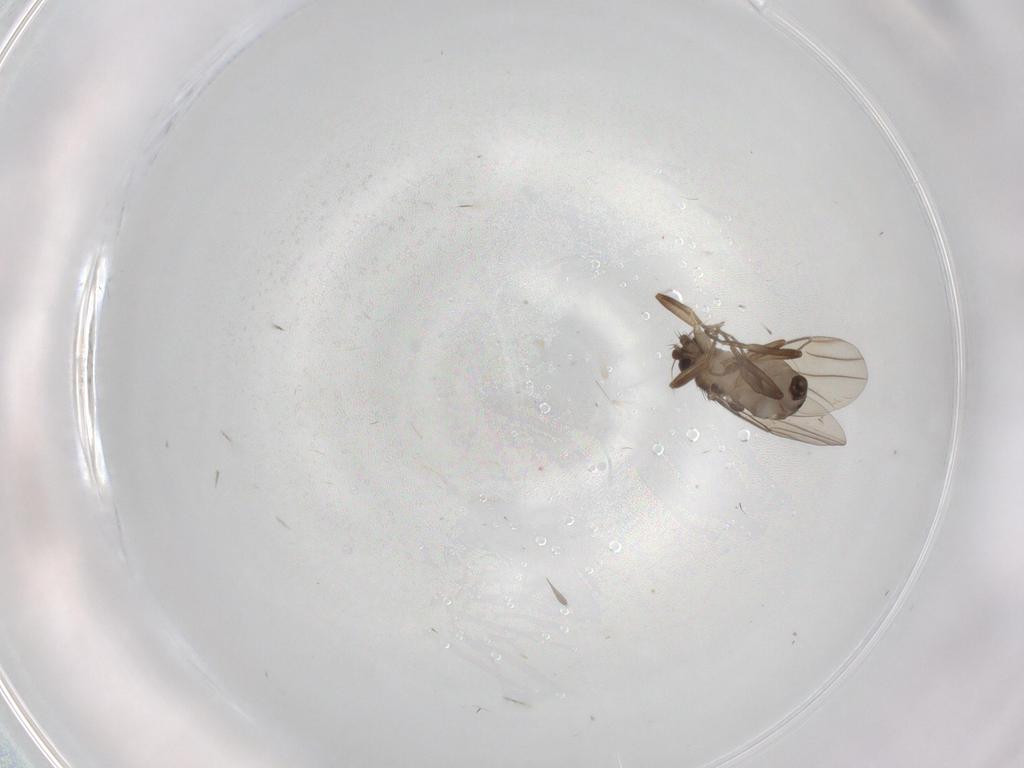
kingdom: Animalia
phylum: Arthropoda
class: Insecta
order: Diptera
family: Phoridae
